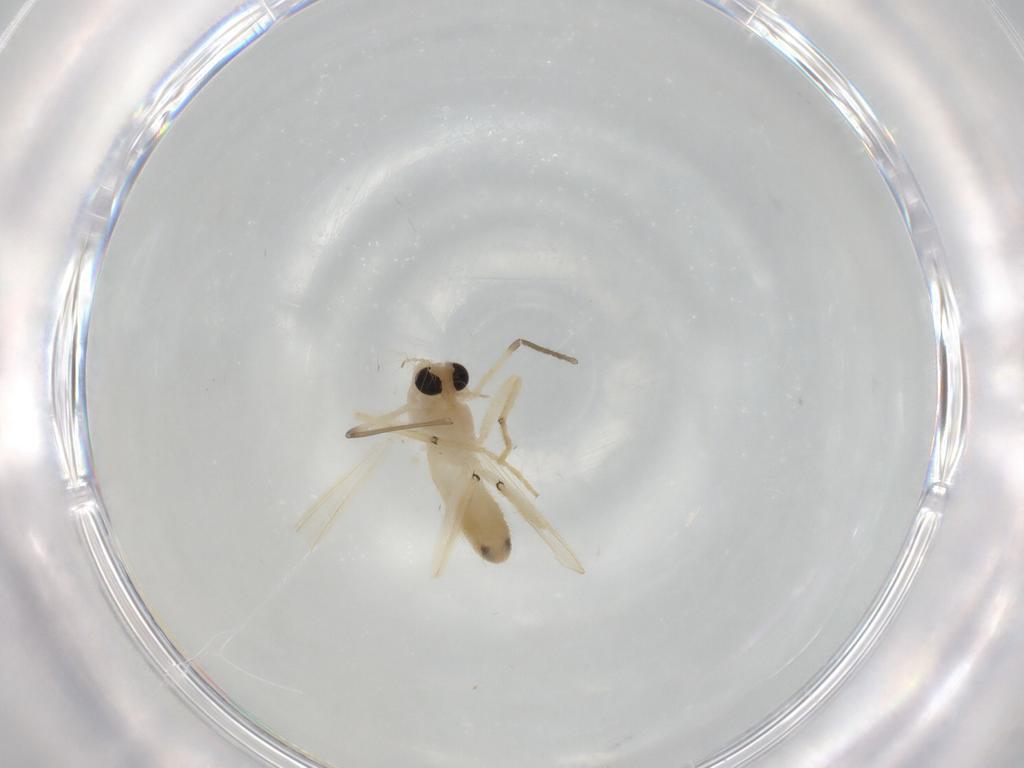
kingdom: Animalia
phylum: Arthropoda
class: Insecta
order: Diptera
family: Chironomidae
